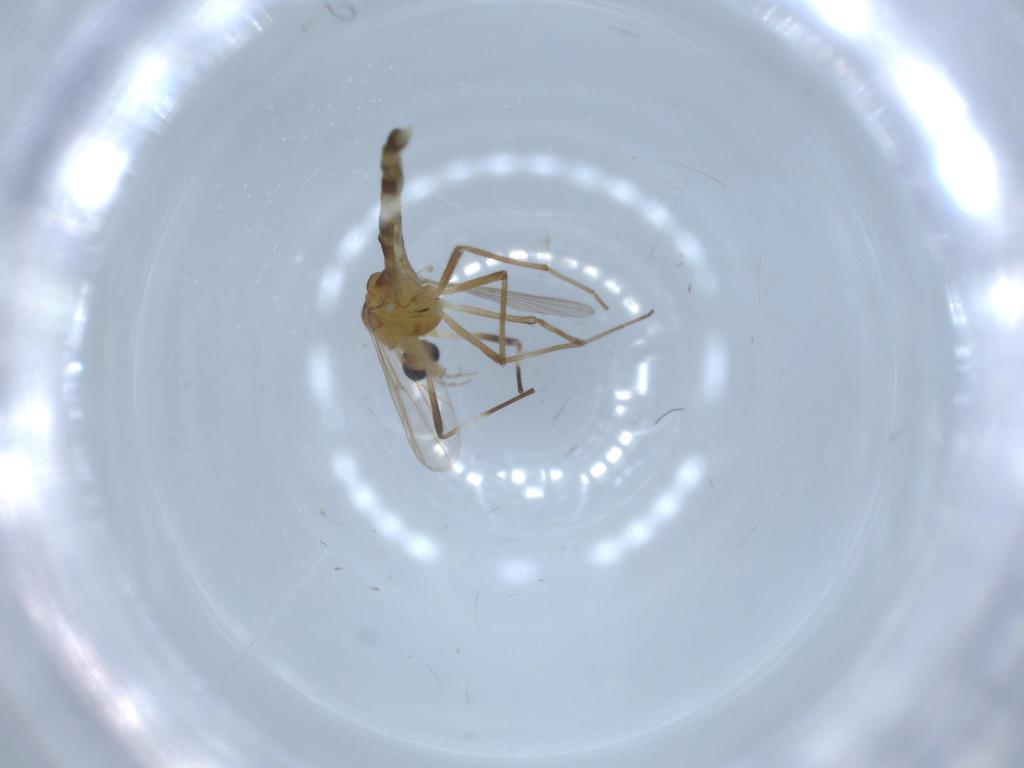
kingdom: Animalia
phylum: Arthropoda
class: Insecta
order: Diptera
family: Chironomidae
